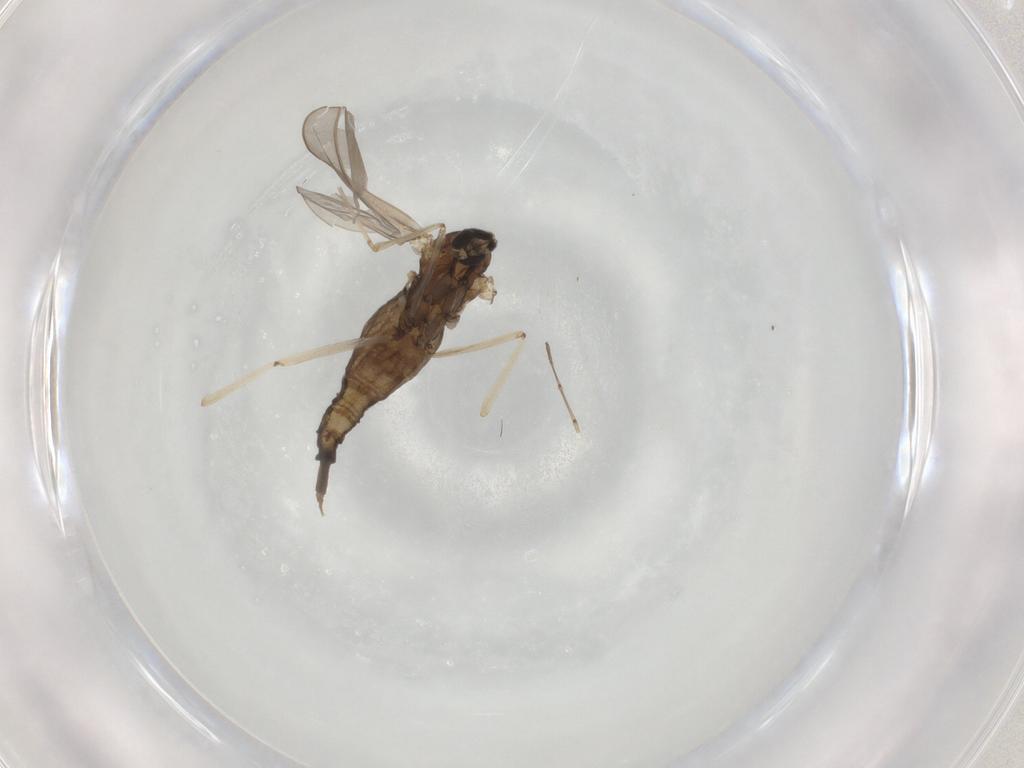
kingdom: Animalia
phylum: Arthropoda
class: Insecta
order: Diptera
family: Cecidomyiidae
